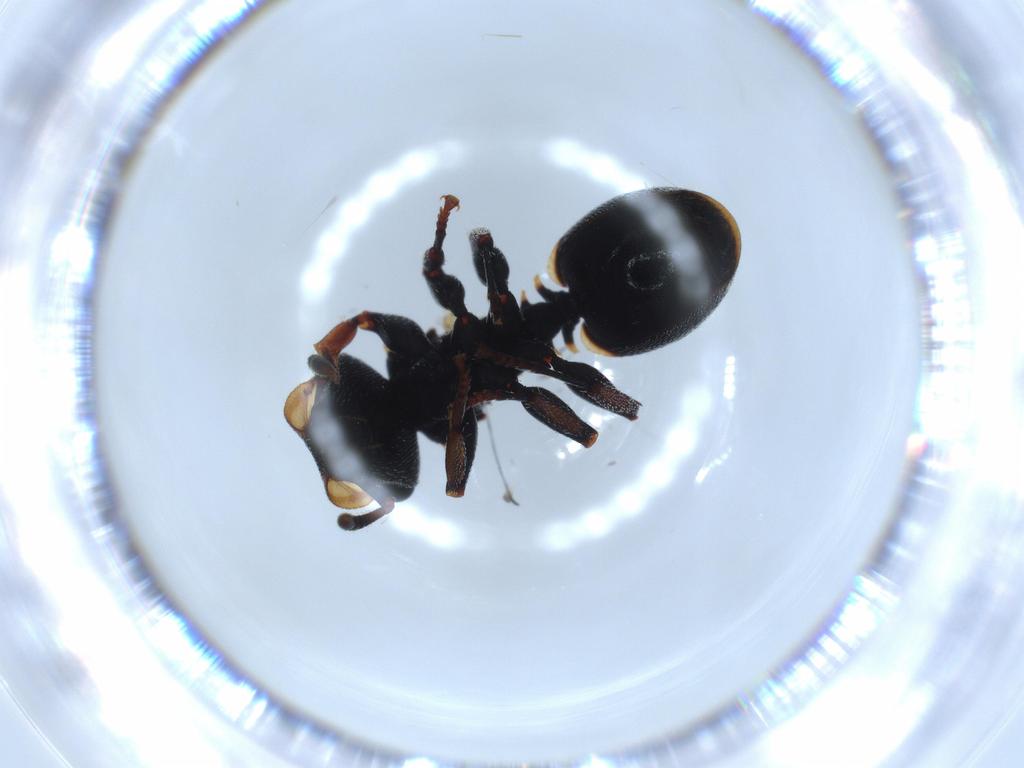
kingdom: Animalia
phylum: Arthropoda
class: Insecta
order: Hymenoptera
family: Formicidae
